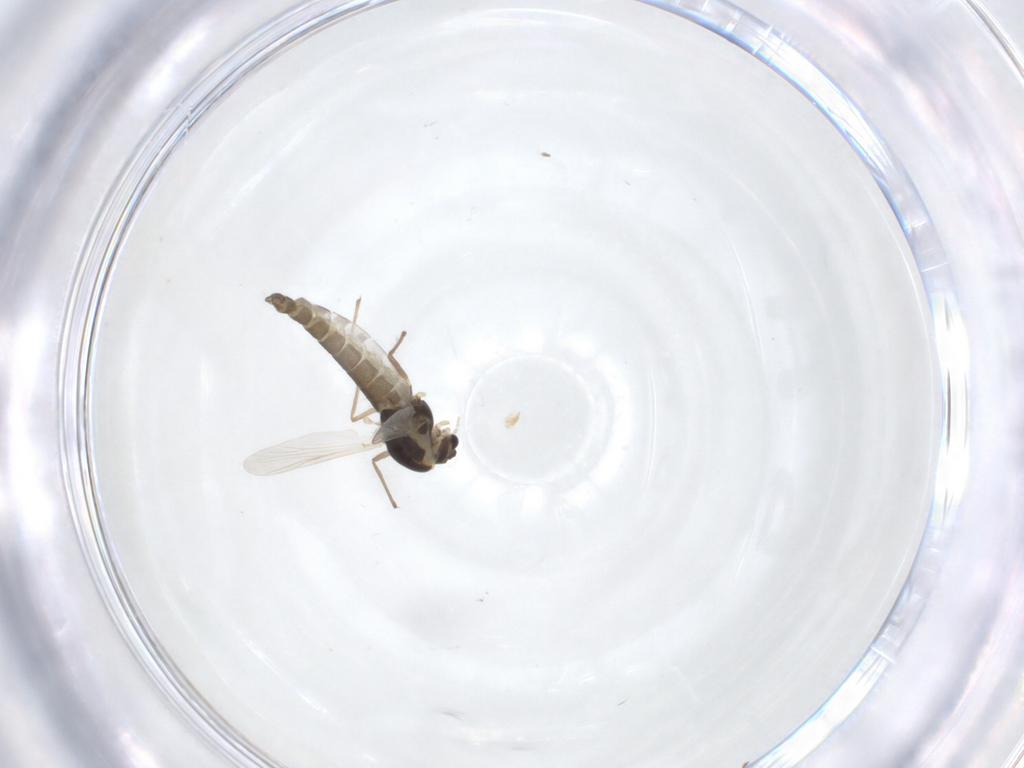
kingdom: Animalia
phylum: Arthropoda
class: Insecta
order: Diptera
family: Chironomidae
